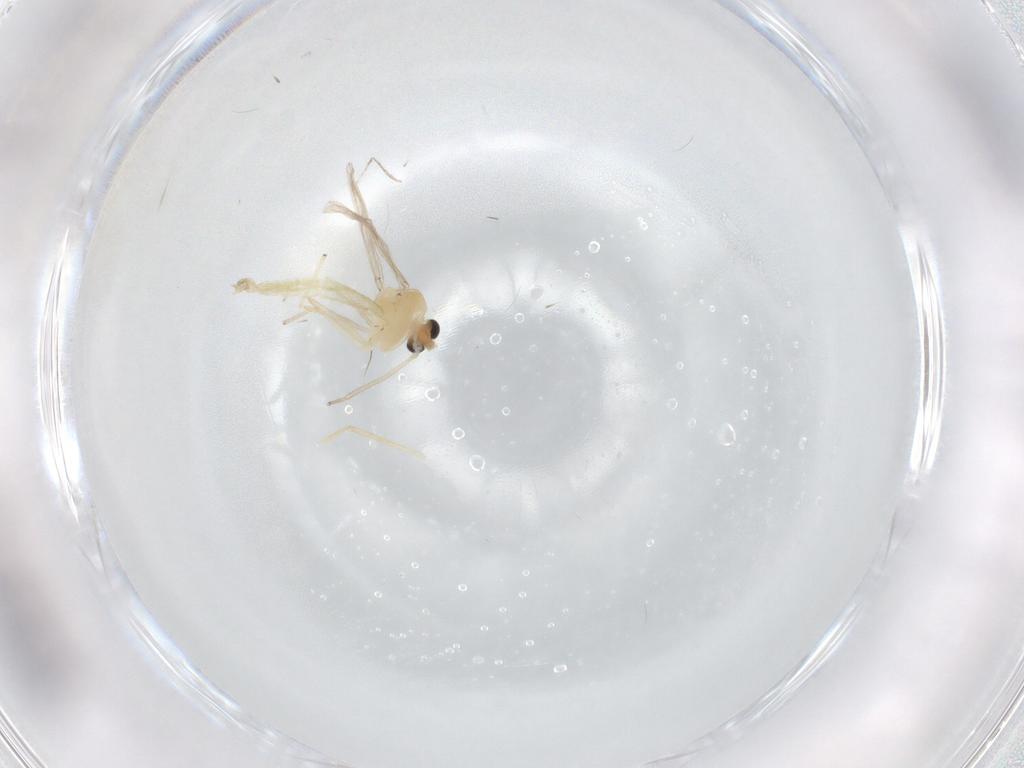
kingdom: Animalia
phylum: Arthropoda
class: Insecta
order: Diptera
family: Chironomidae
